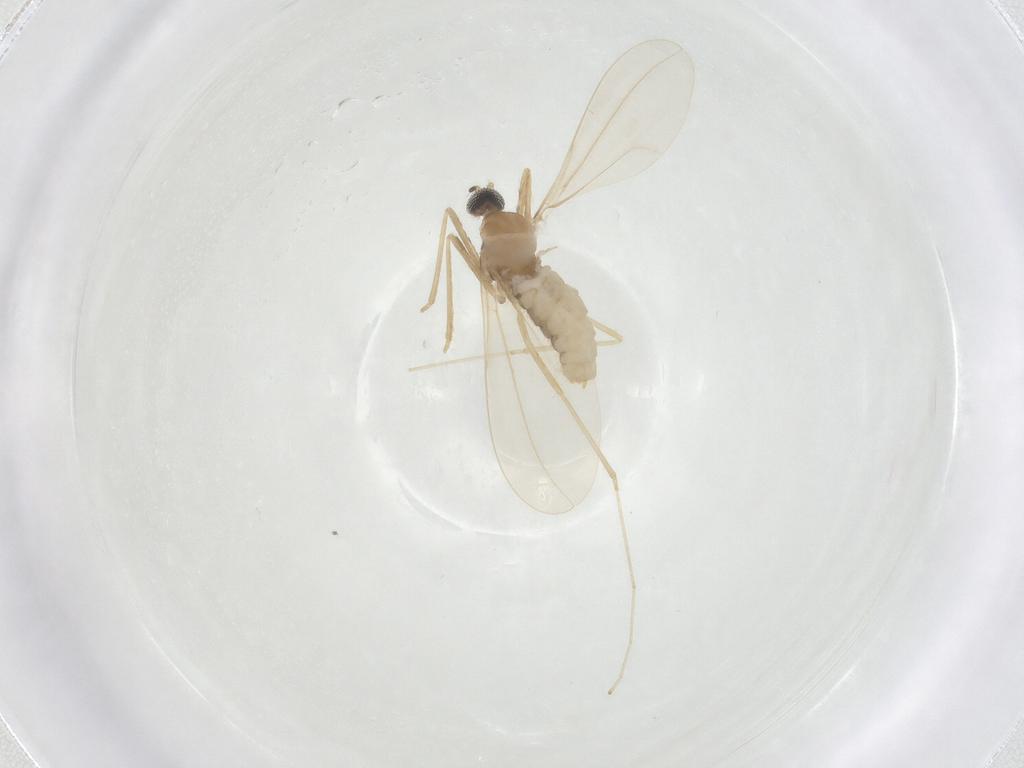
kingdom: Animalia
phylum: Arthropoda
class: Insecta
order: Diptera
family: Cecidomyiidae
